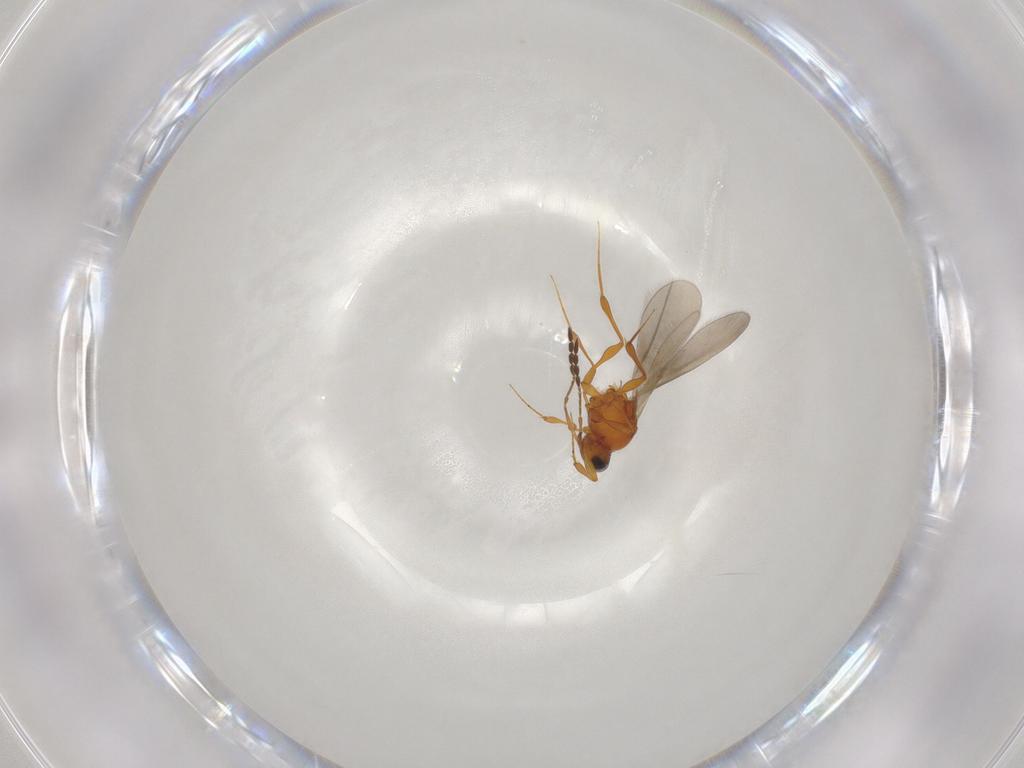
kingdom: Animalia
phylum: Arthropoda
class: Insecta
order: Hymenoptera
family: Platygastridae
